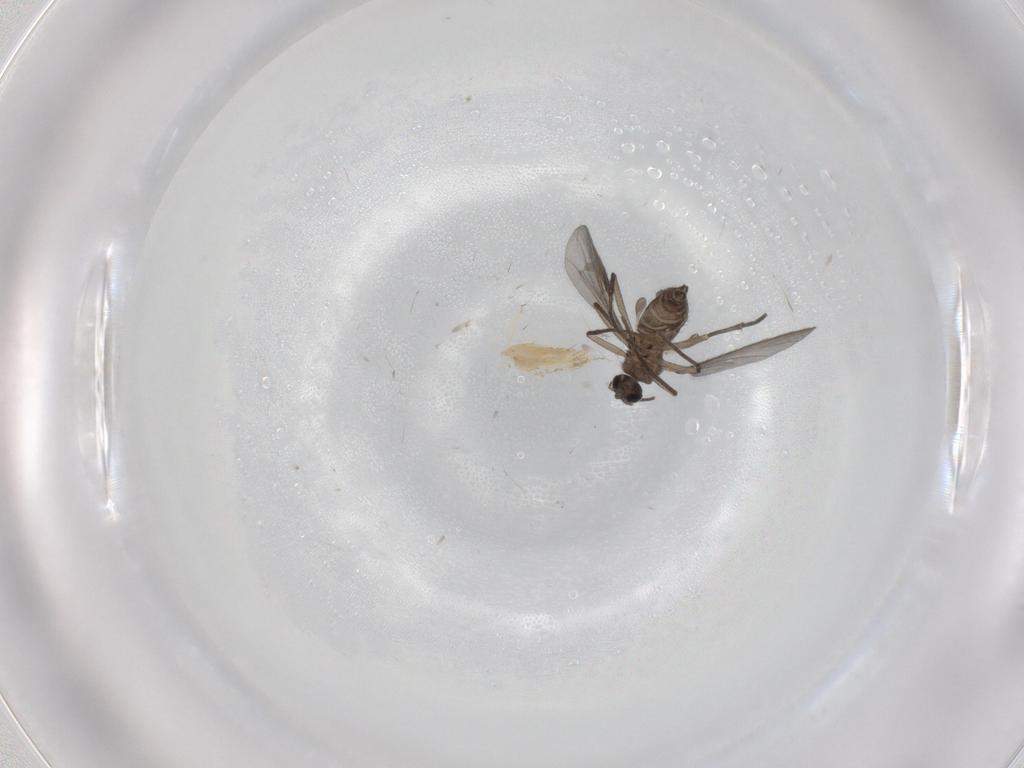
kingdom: Animalia
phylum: Arthropoda
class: Insecta
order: Diptera
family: Sciaridae
